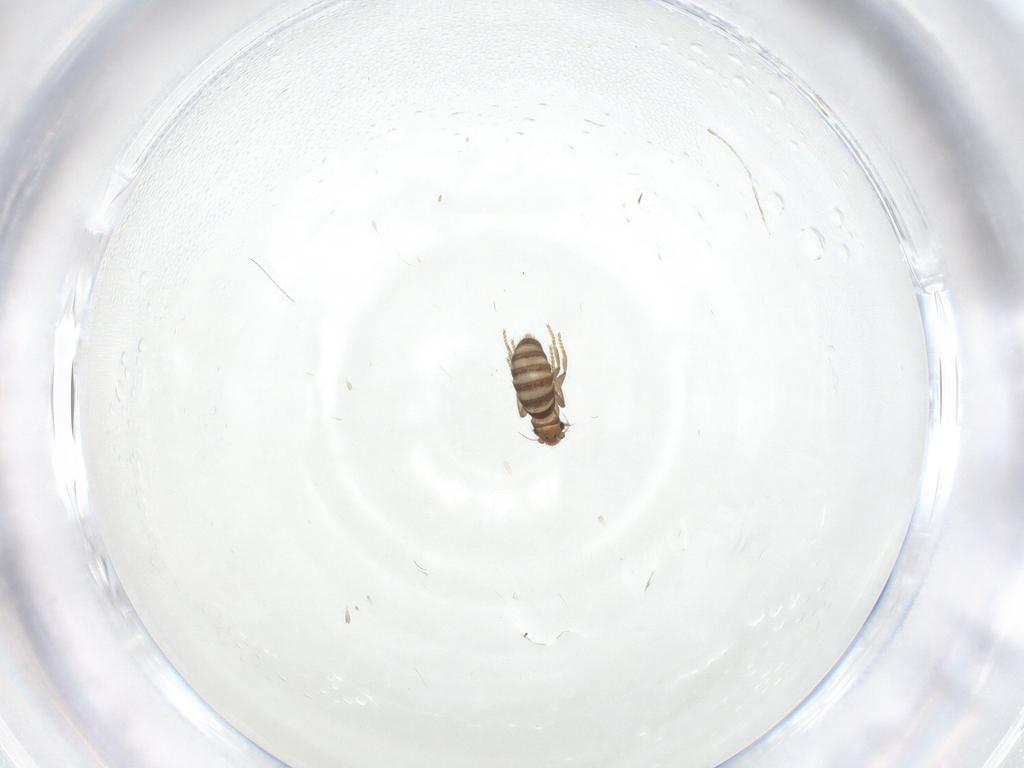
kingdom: Animalia
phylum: Arthropoda
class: Insecta
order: Diptera
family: Phoridae
